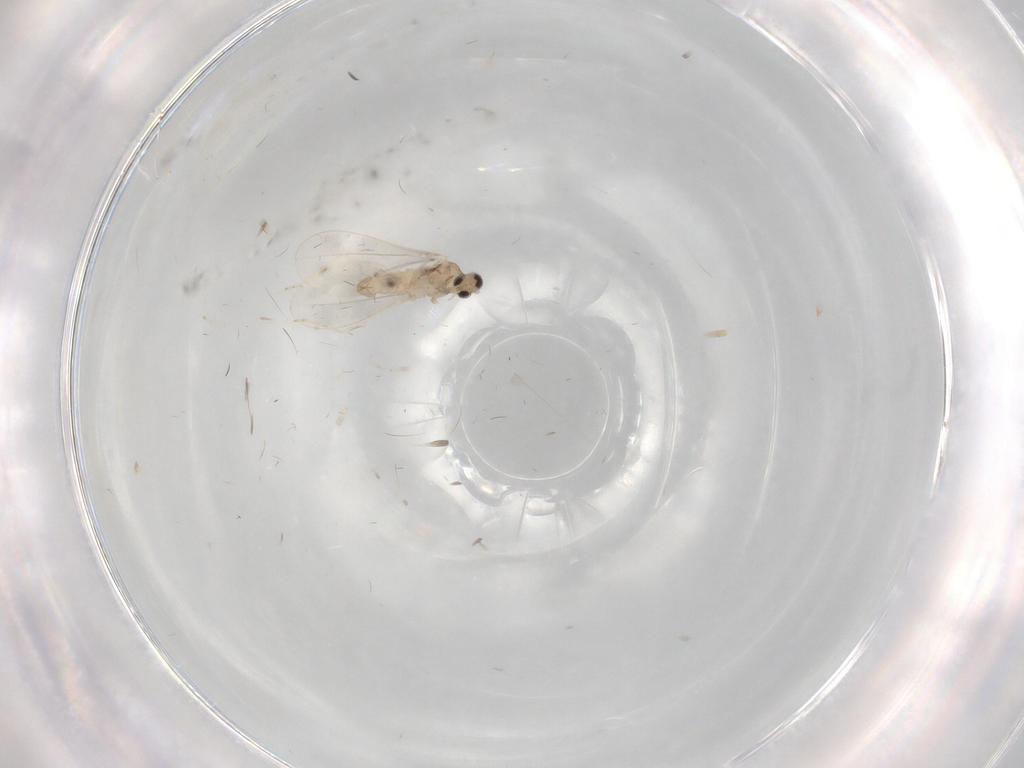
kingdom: Animalia
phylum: Arthropoda
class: Insecta
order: Diptera
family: Cecidomyiidae
